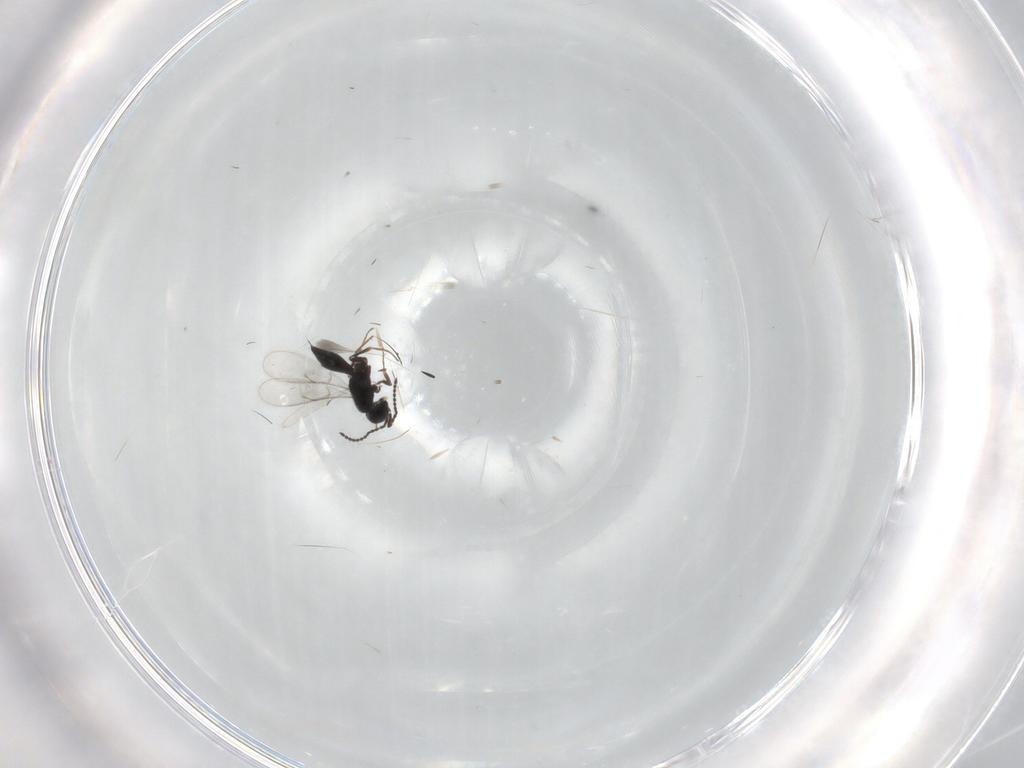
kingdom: Animalia
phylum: Arthropoda
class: Insecta
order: Hymenoptera
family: Scelionidae
